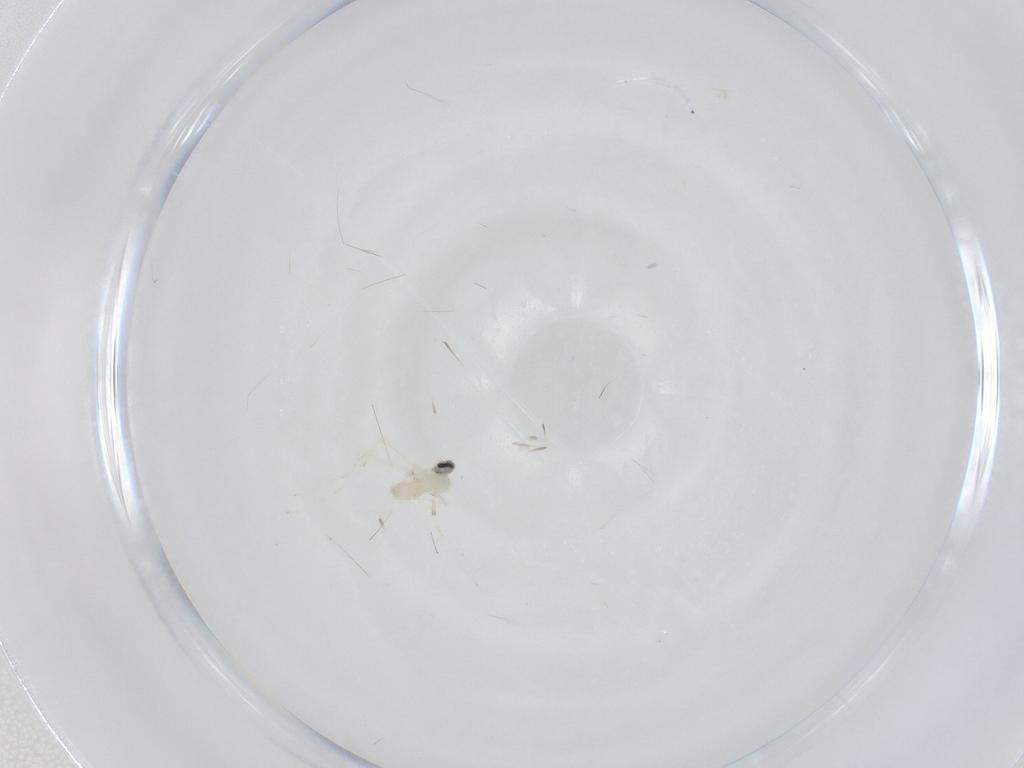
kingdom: Animalia
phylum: Arthropoda
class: Insecta
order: Diptera
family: Cecidomyiidae
